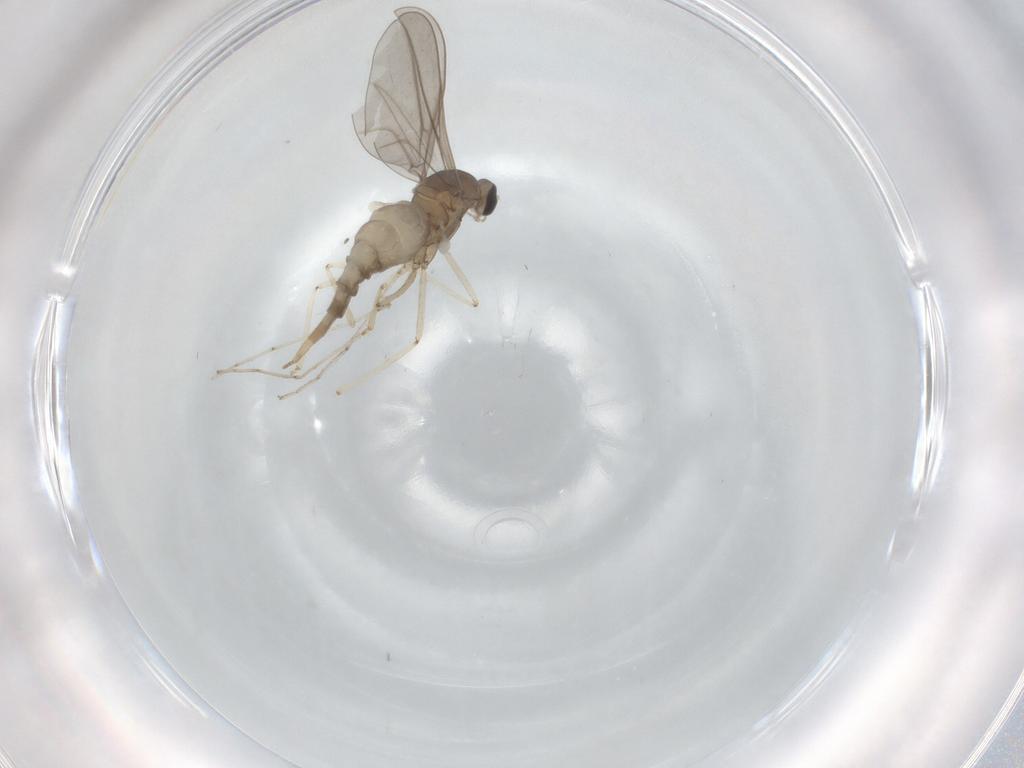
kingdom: Animalia
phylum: Arthropoda
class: Insecta
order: Diptera
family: Cecidomyiidae
